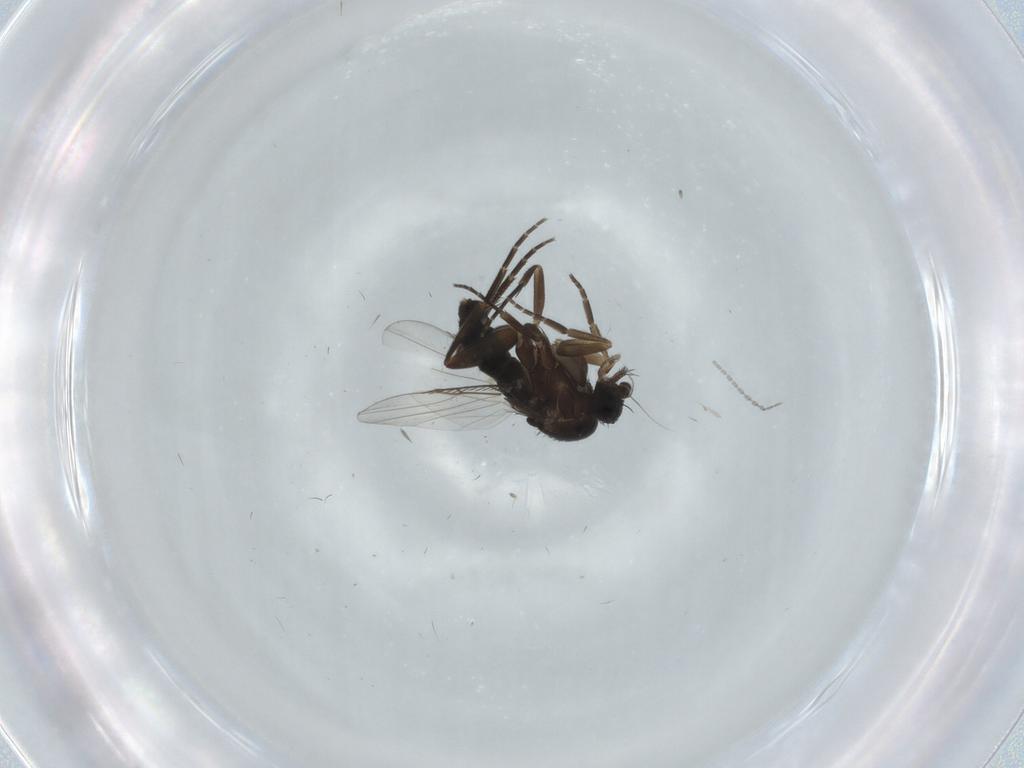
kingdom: Animalia
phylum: Arthropoda
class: Insecta
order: Diptera
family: Phoridae
